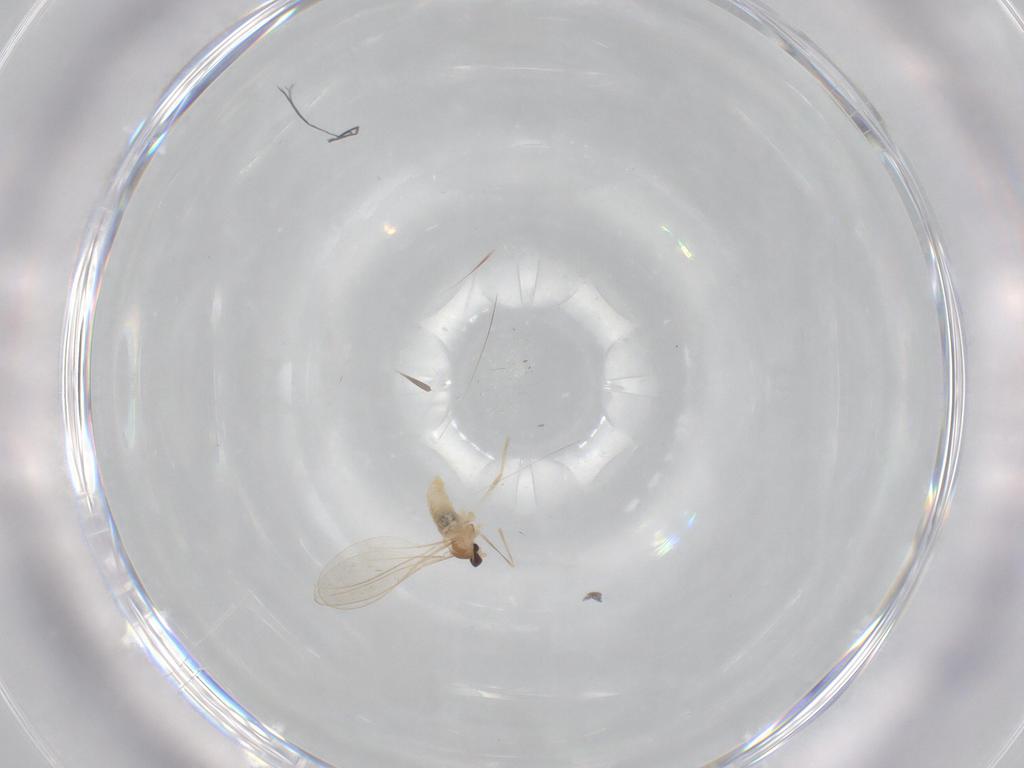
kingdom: Animalia
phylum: Arthropoda
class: Insecta
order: Diptera
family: Cecidomyiidae
